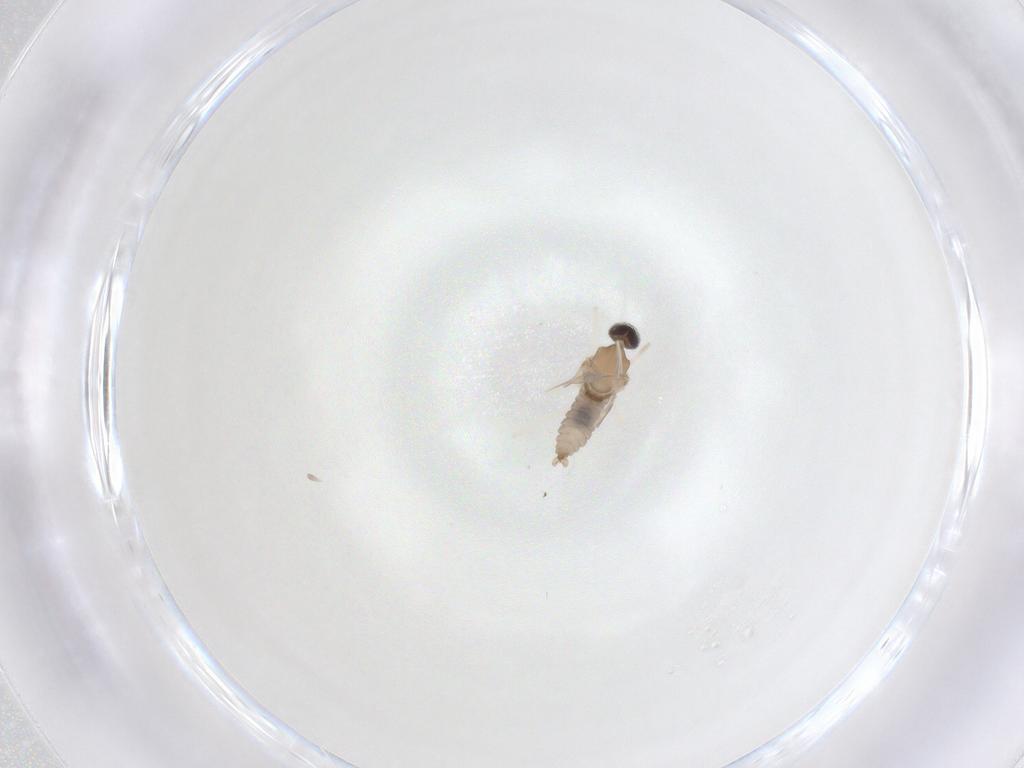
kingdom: Animalia
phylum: Arthropoda
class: Insecta
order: Diptera
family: Cecidomyiidae
